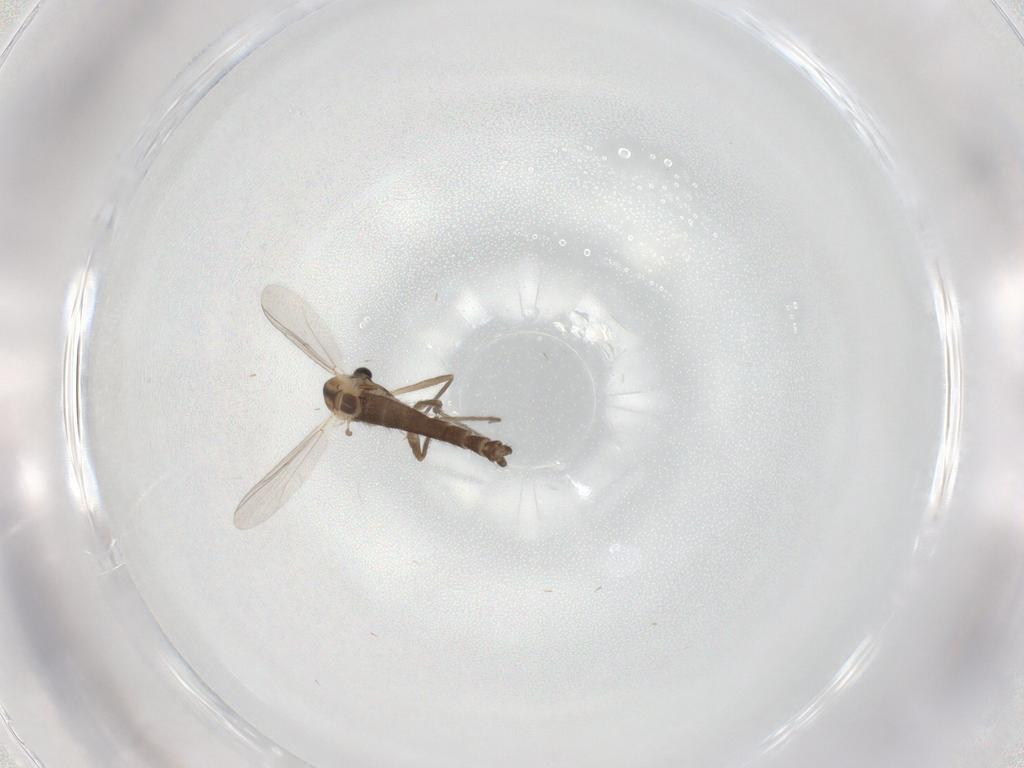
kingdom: Animalia
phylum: Arthropoda
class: Insecta
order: Diptera
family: Chironomidae
